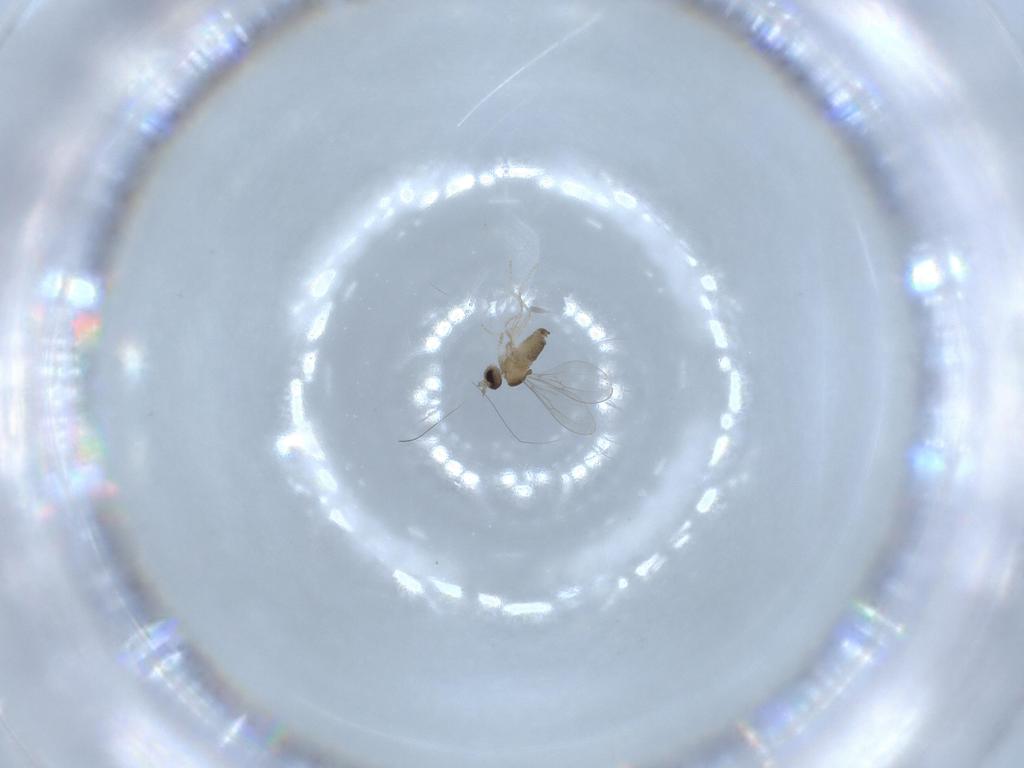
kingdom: Animalia
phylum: Arthropoda
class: Insecta
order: Diptera
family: Cecidomyiidae
